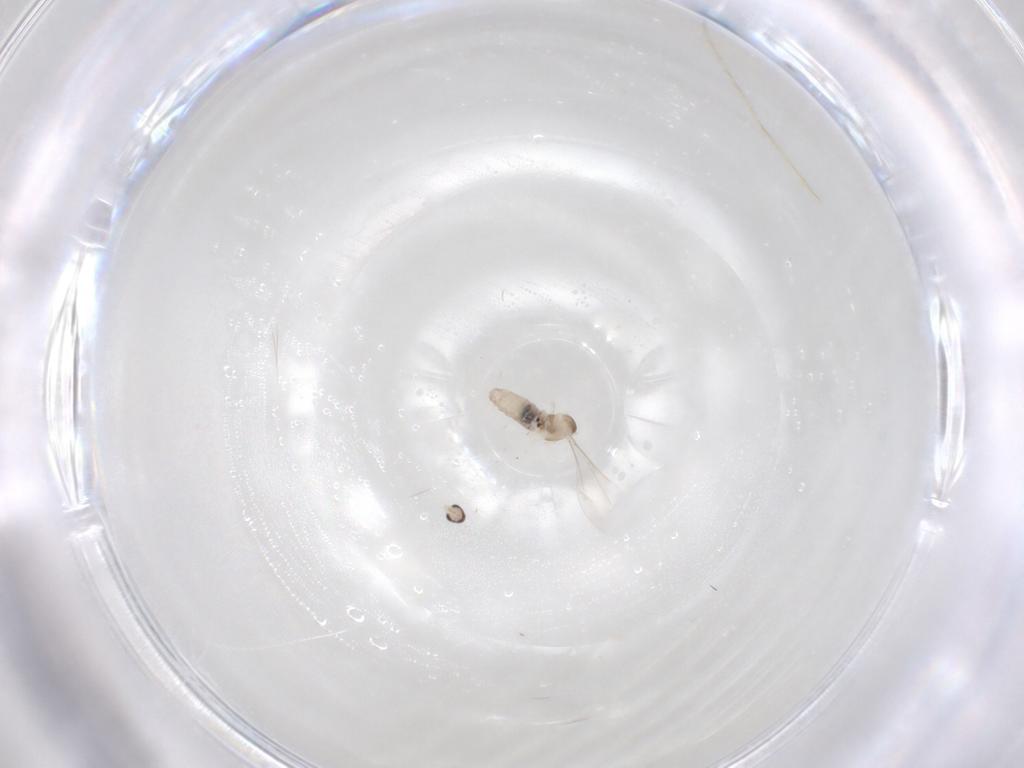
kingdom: Animalia
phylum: Arthropoda
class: Insecta
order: Diptera
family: Cecidomyiidae
